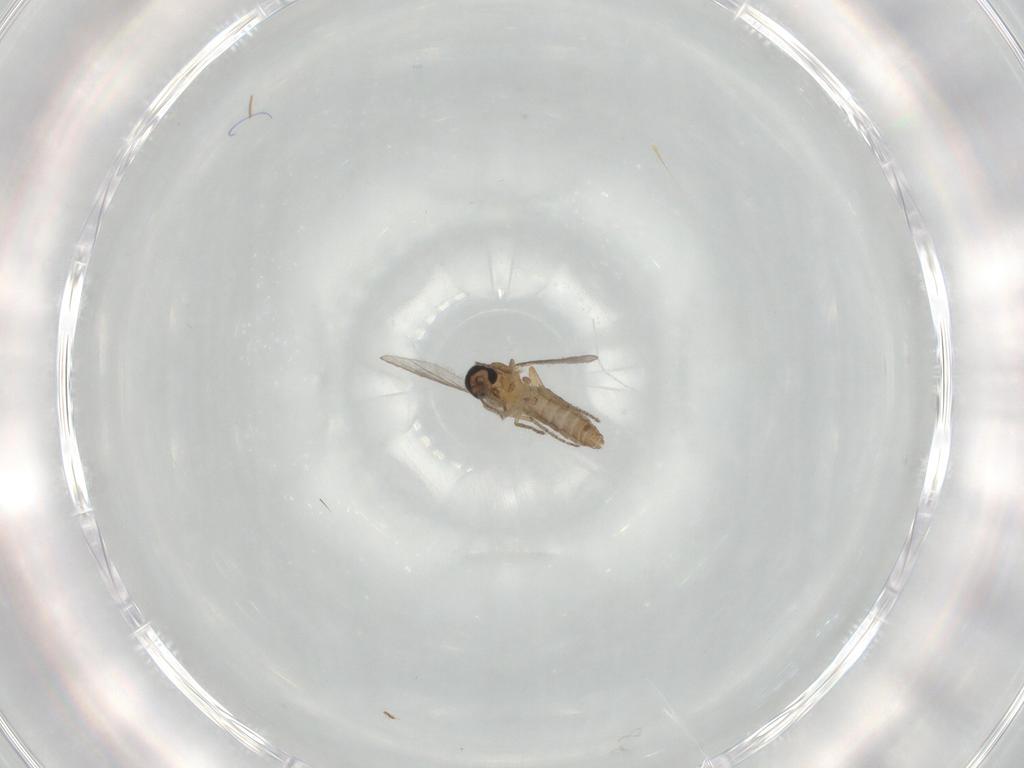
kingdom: Animalia
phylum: Arthropoda
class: Insecta
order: Diptera
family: Ceratopogonidae
